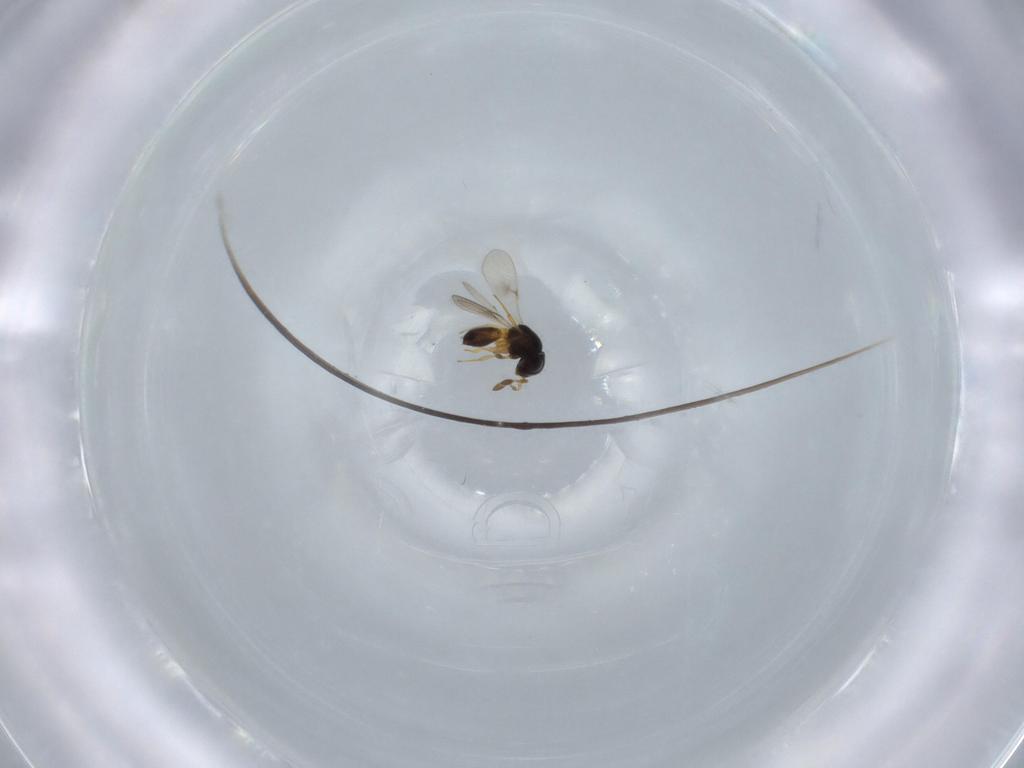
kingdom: Animalia
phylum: Arthropoda
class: Insecta
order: Hymenoptera
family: Scelionidae
